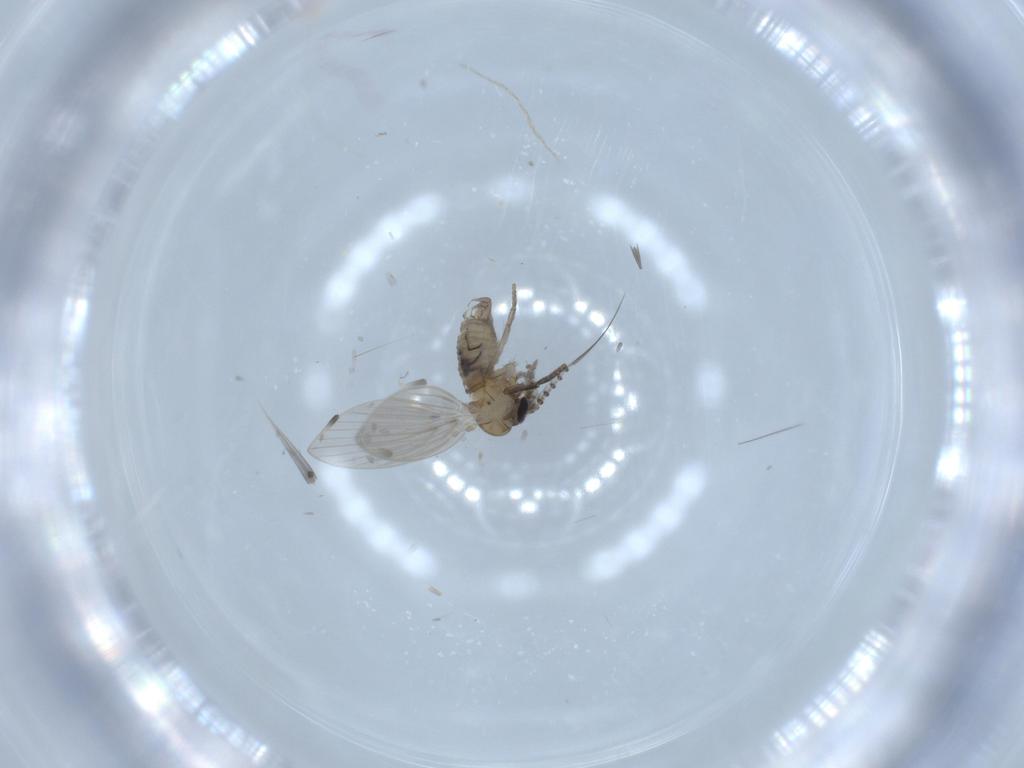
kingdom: Animalia
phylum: Arthropoda
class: Insecta
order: Diptera
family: Psychodidae
